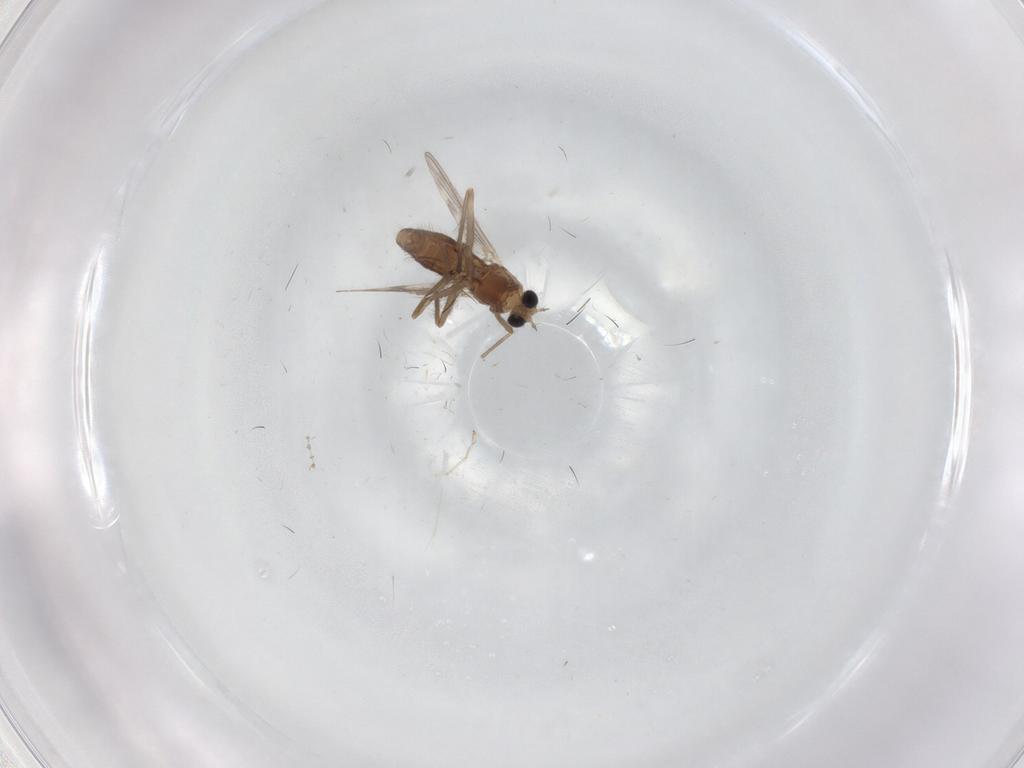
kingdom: Animalia
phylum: Arthropoda
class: Insecta
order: Diptera
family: Chironomidae
